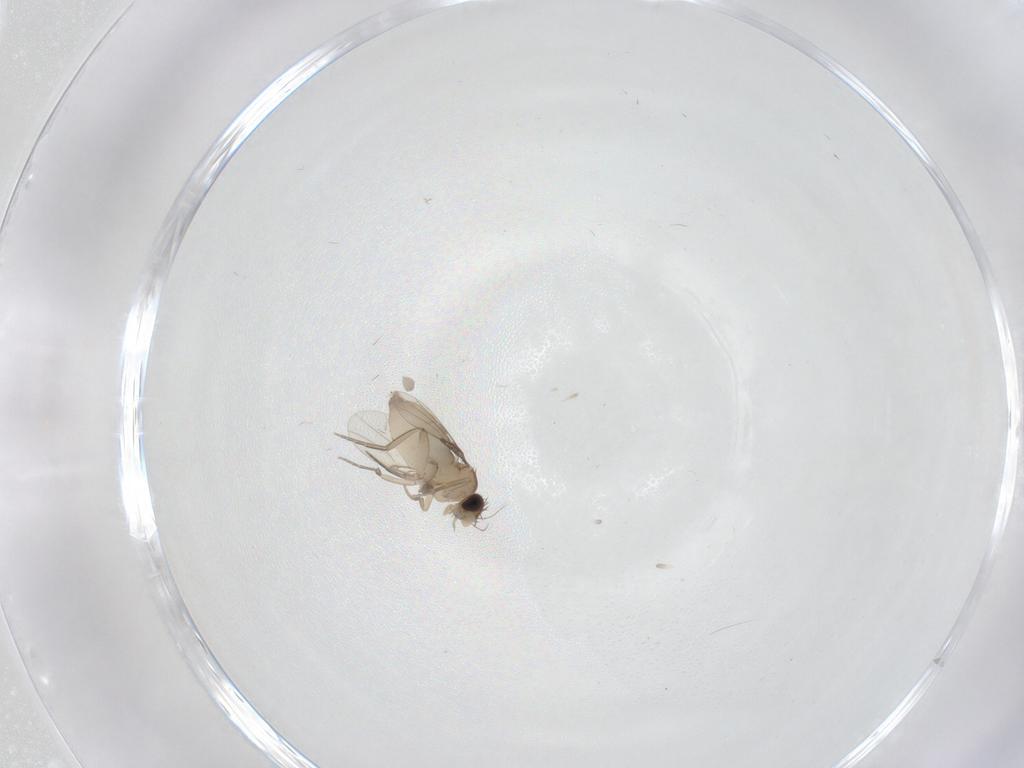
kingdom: Animalia
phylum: Arthropoda
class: Insecta
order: Diptera
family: Phoridae
